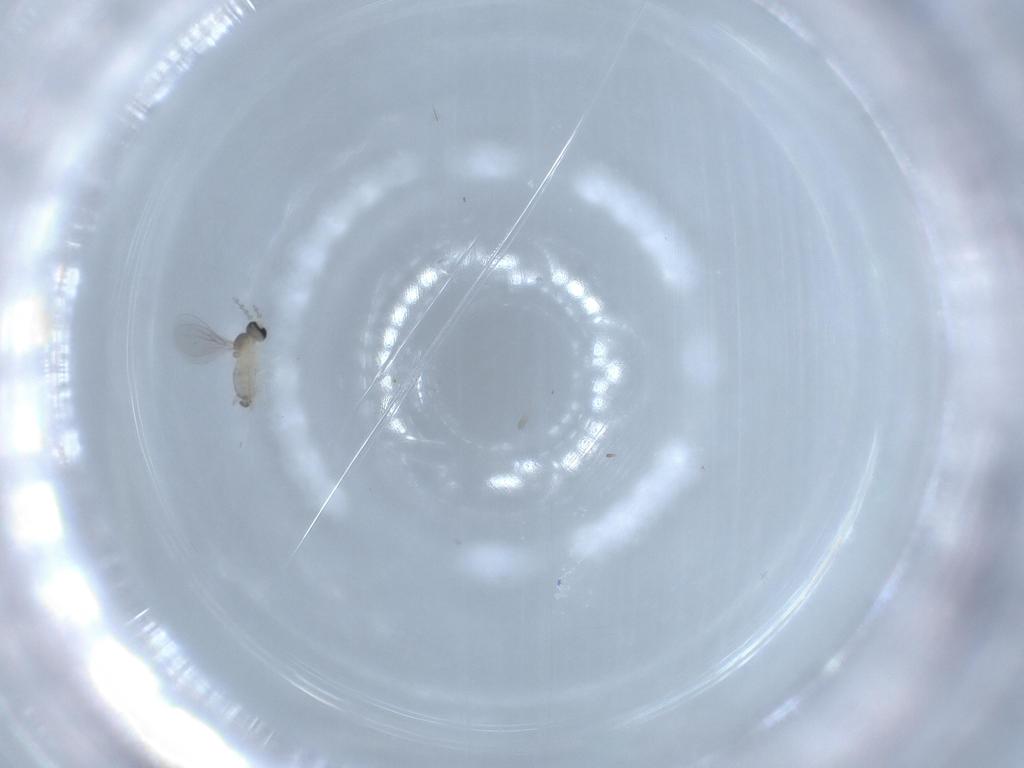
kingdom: Animalia
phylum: Arthropoda
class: Insecta
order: Diptera
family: Cecidomyiidae
